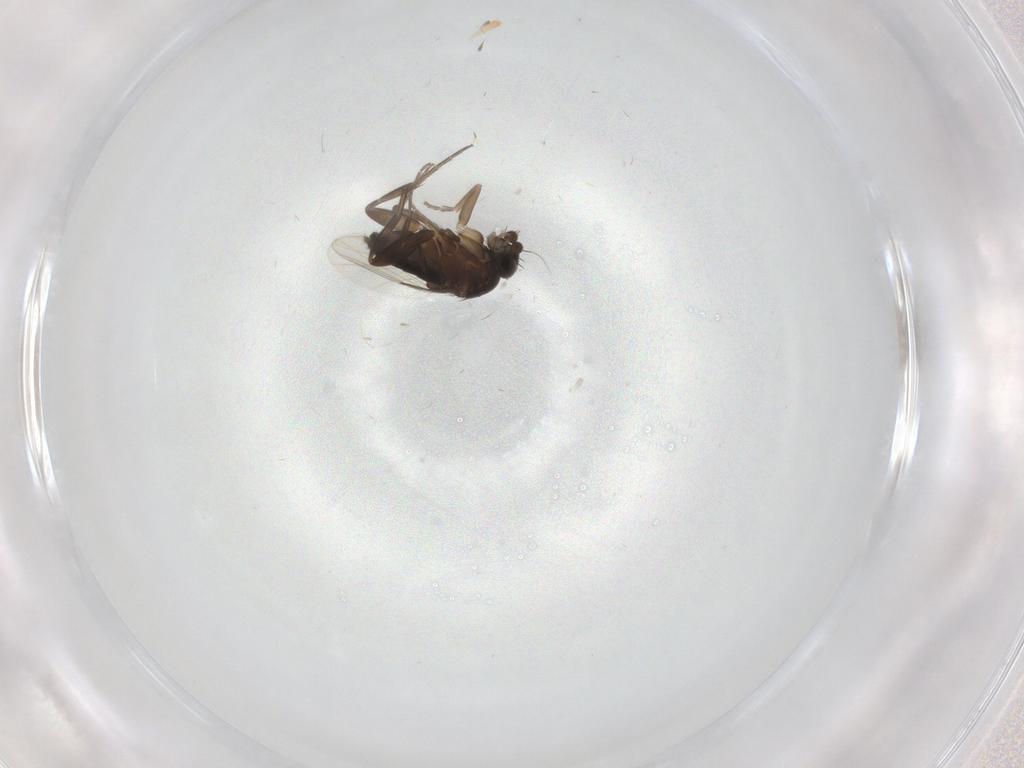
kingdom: Animalia
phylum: Arthropoda
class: Insecta
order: Diptera
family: Phoridae
